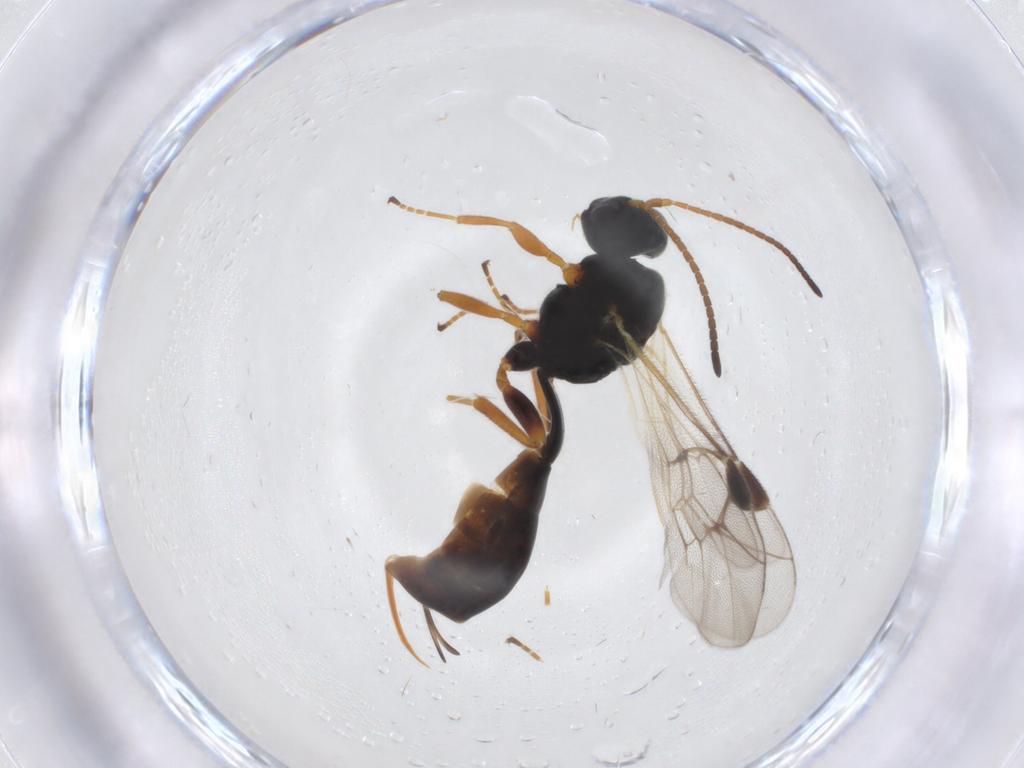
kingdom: Animalia
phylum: Arthropoda
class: Insecta
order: Hymenoptera
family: Ichneumonidae
